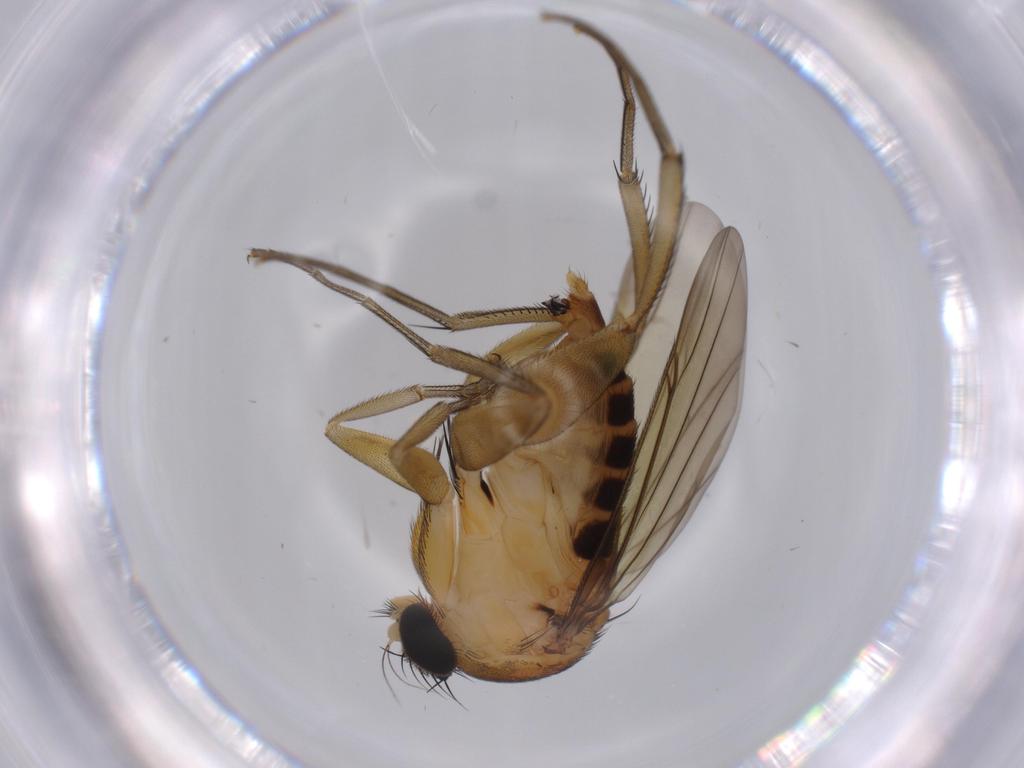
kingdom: Animalia
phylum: Arthropoda
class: Insecta
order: Diptera
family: Phoridae
